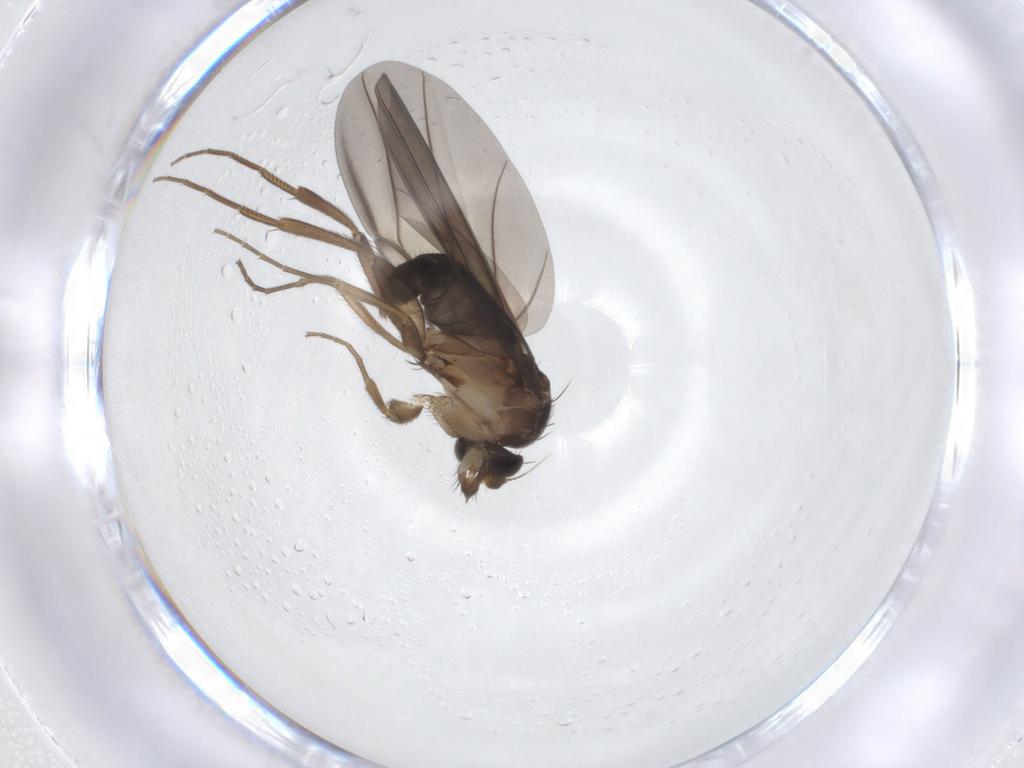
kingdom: Animalia
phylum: Arthropoda
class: Insecta
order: Diptera
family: Phoridae
